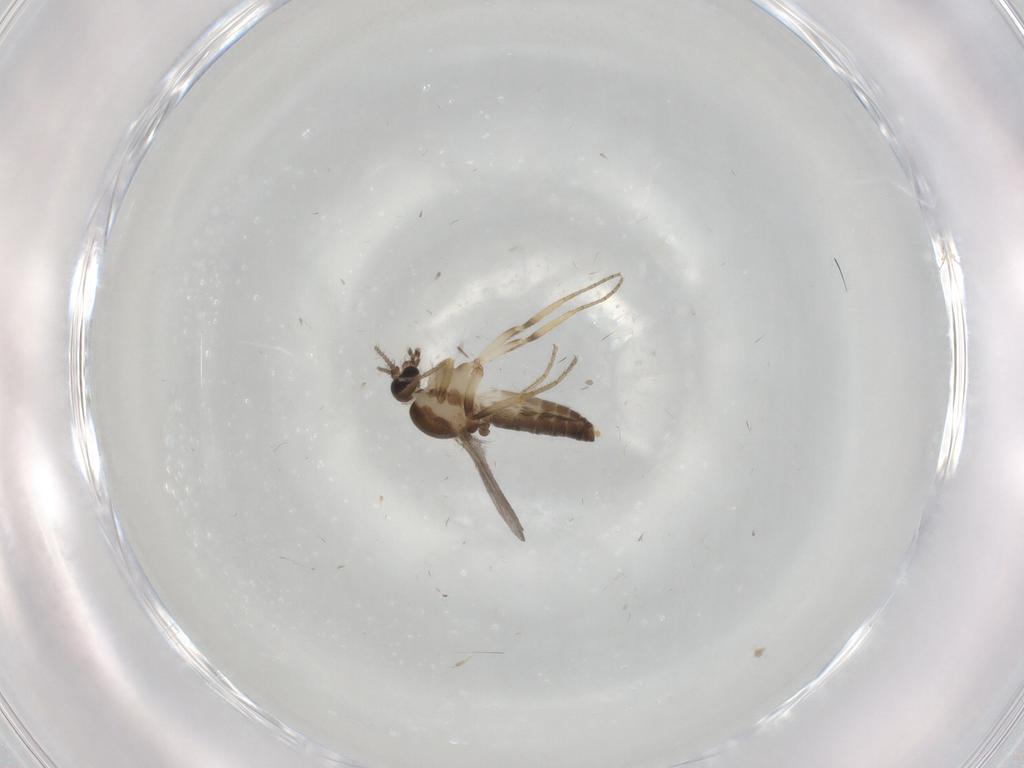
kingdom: Animalia
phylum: Arthropoda
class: Insecta
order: Diptera
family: Ceratopogonidae
